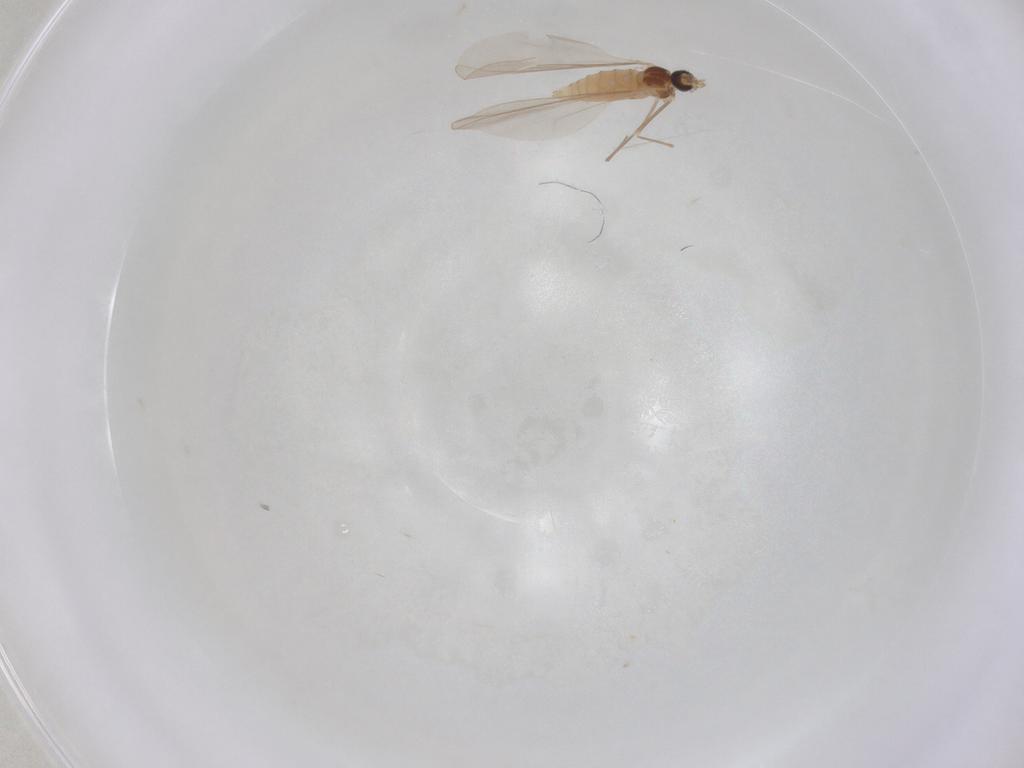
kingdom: Animalia
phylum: Arthropoda
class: Insecta
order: Diptera
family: Cecidomyiidae
